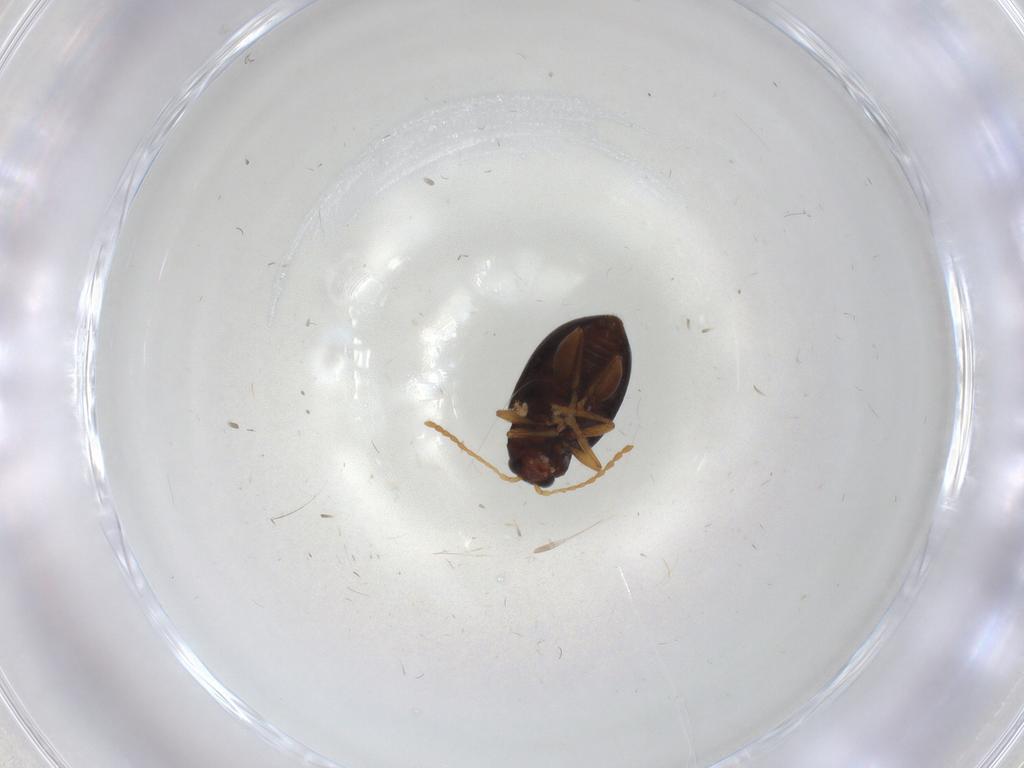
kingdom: Animalia
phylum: Arthropoda
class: Insecta
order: Coleoptera
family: Chrysomelidae
